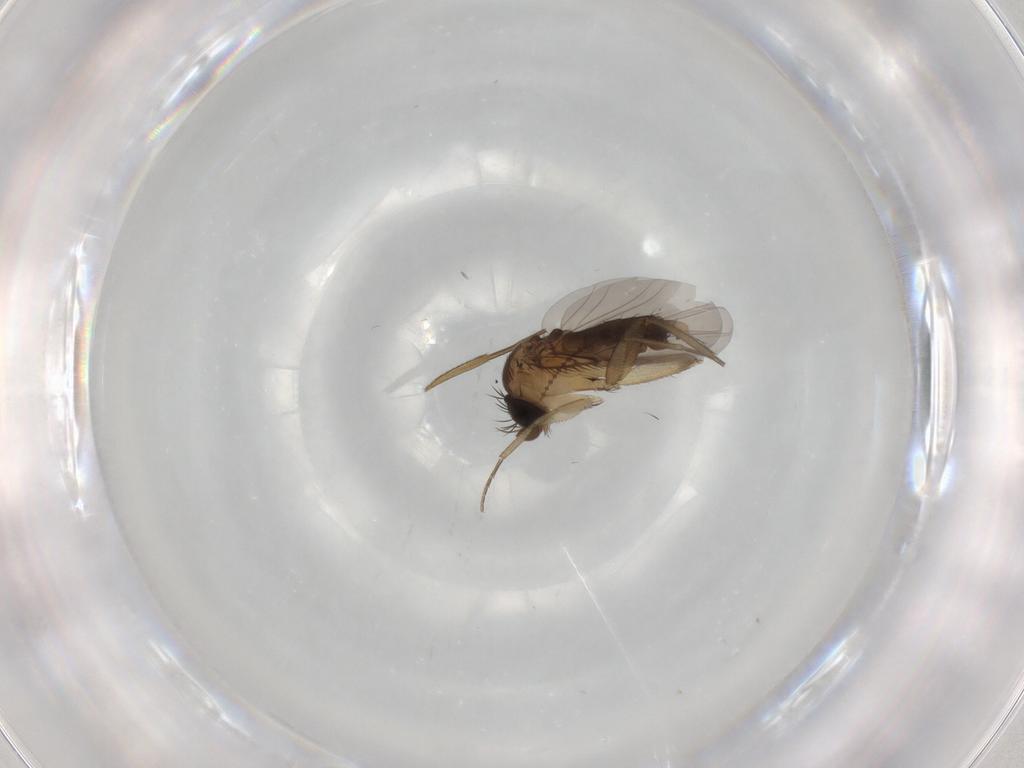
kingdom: Animalia
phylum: Arthropoda
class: Insecta
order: Diptera
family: Phoridae
